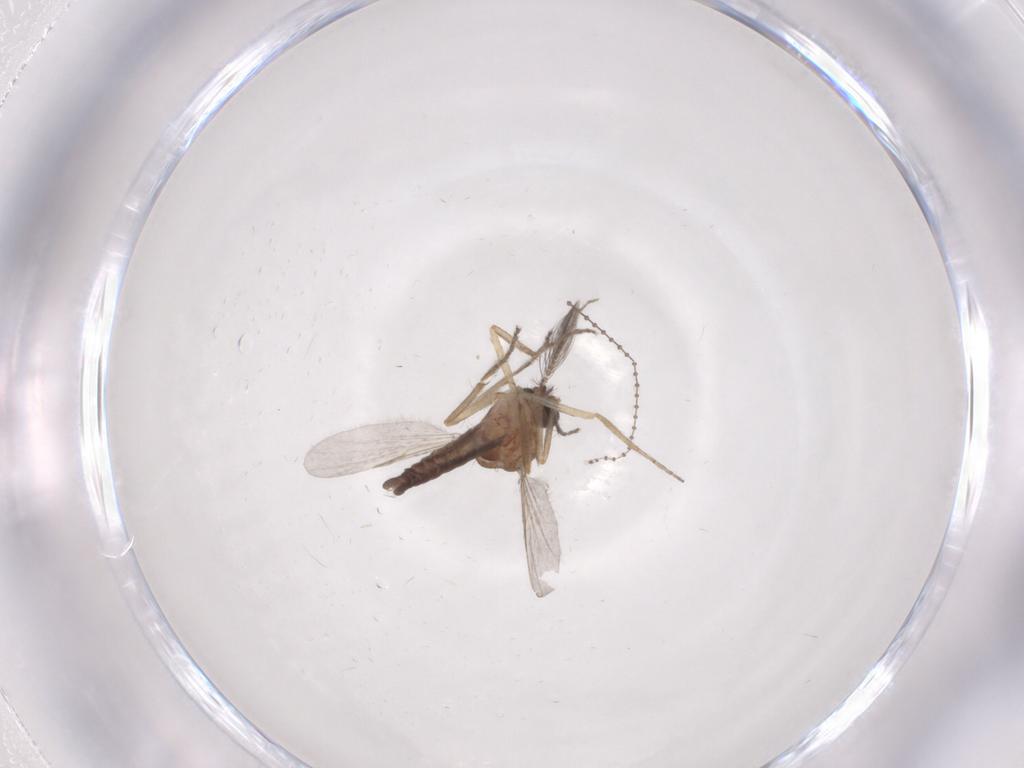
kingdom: Animalia
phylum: Arthropoda
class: Insecta
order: Diptera
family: Ceratopogonidae
